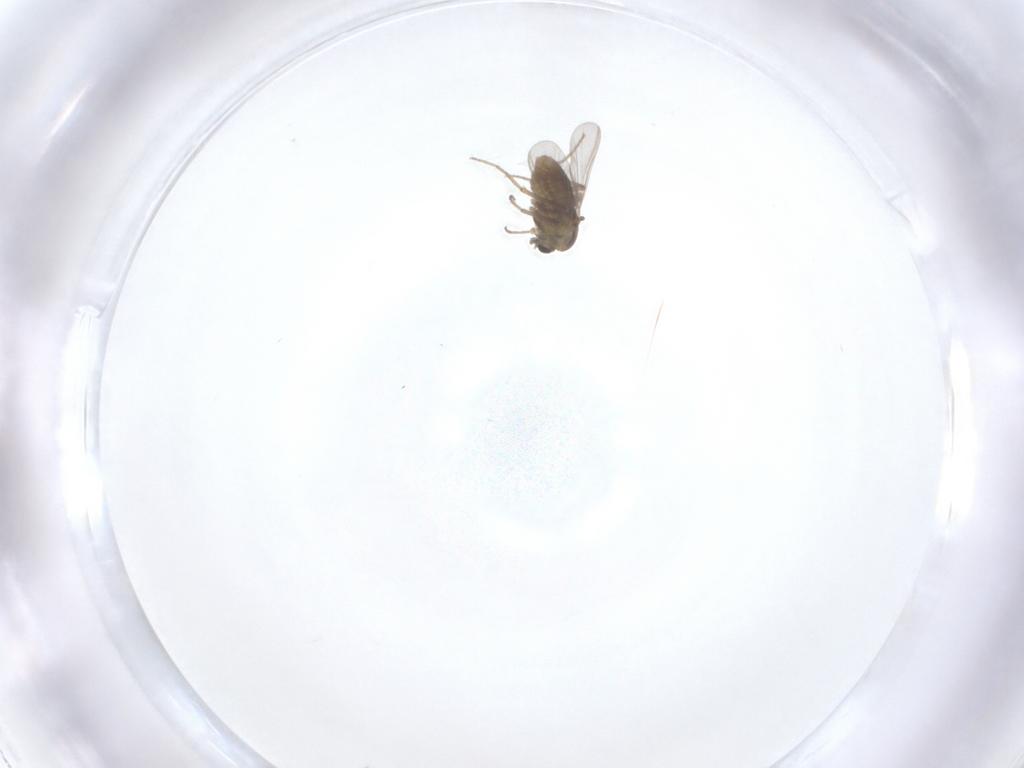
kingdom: Animalia
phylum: Arthropoda
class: Insecta
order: Diptera
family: Chironomidae
